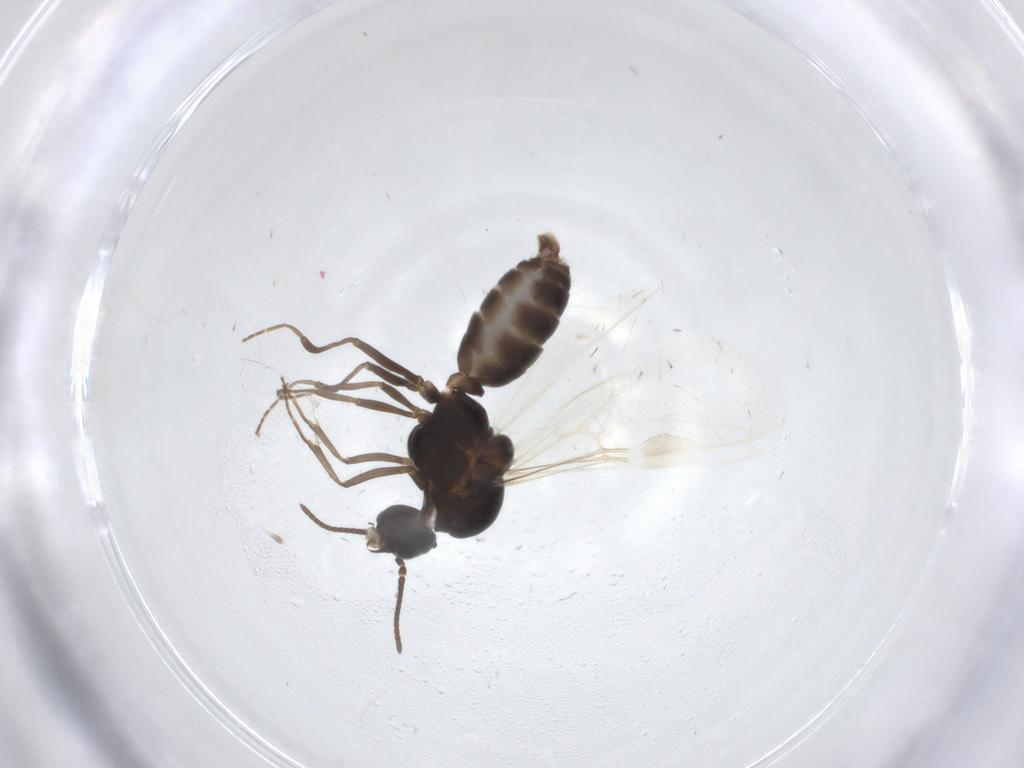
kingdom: Animalia
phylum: Arthropoda
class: Insecta
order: Hymenoptera
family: Formicidae
